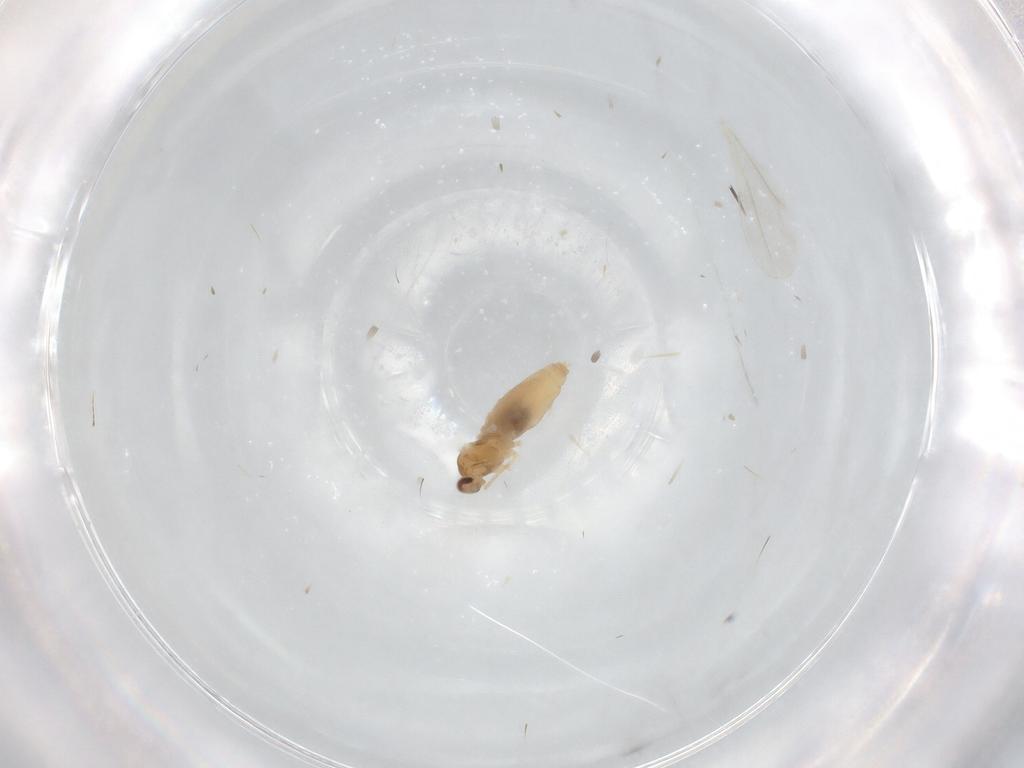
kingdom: Animalia
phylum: Arthropoda
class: Insecta
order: Diptera
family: Cecidomyiidae
